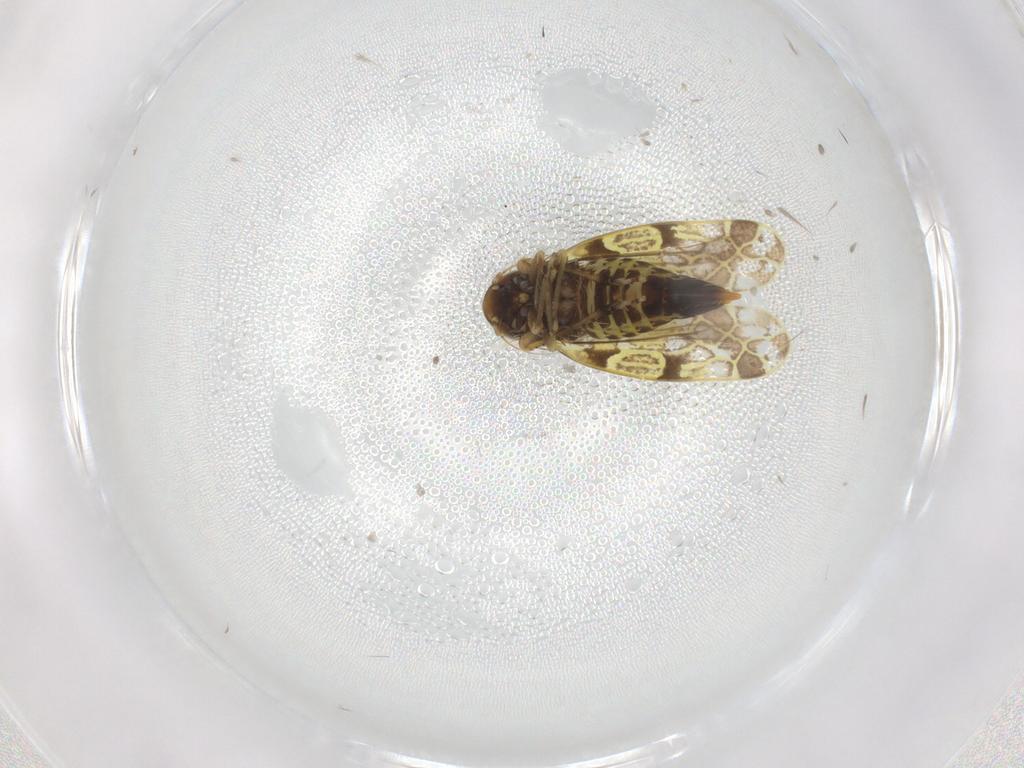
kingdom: Animalia
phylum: Arthropoda
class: Insecta
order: Hemiptera
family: Cicadellidae
